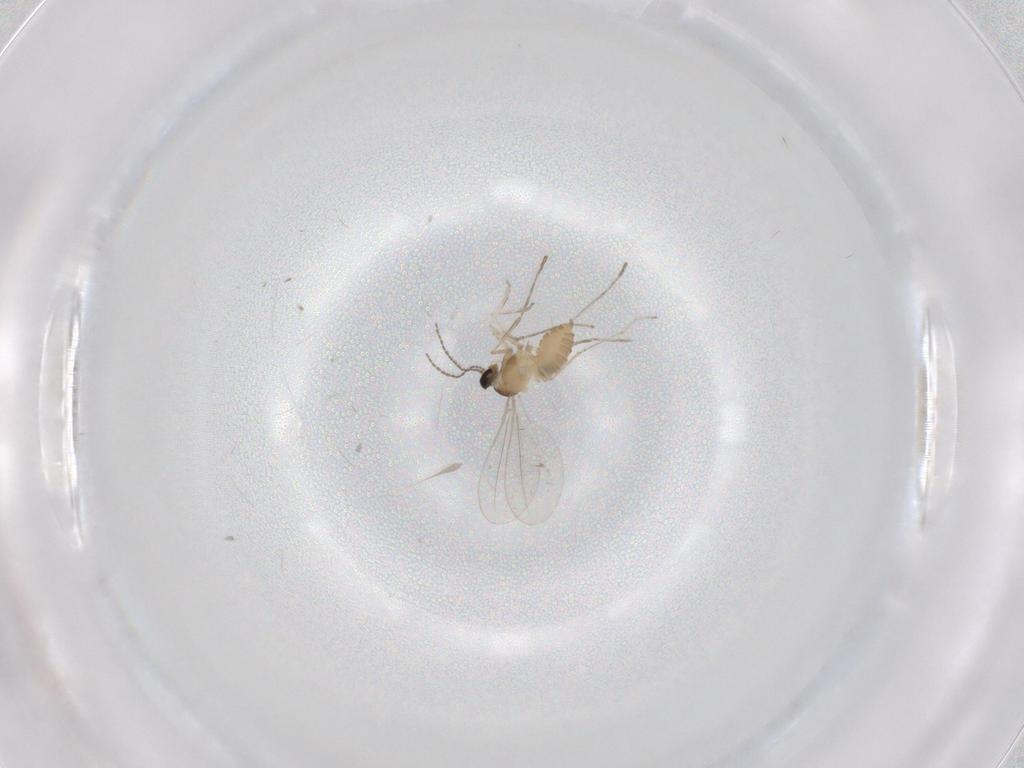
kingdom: Animalia
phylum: Arthropoda
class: Insecta
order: Diptera
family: Cecidomyiidae
